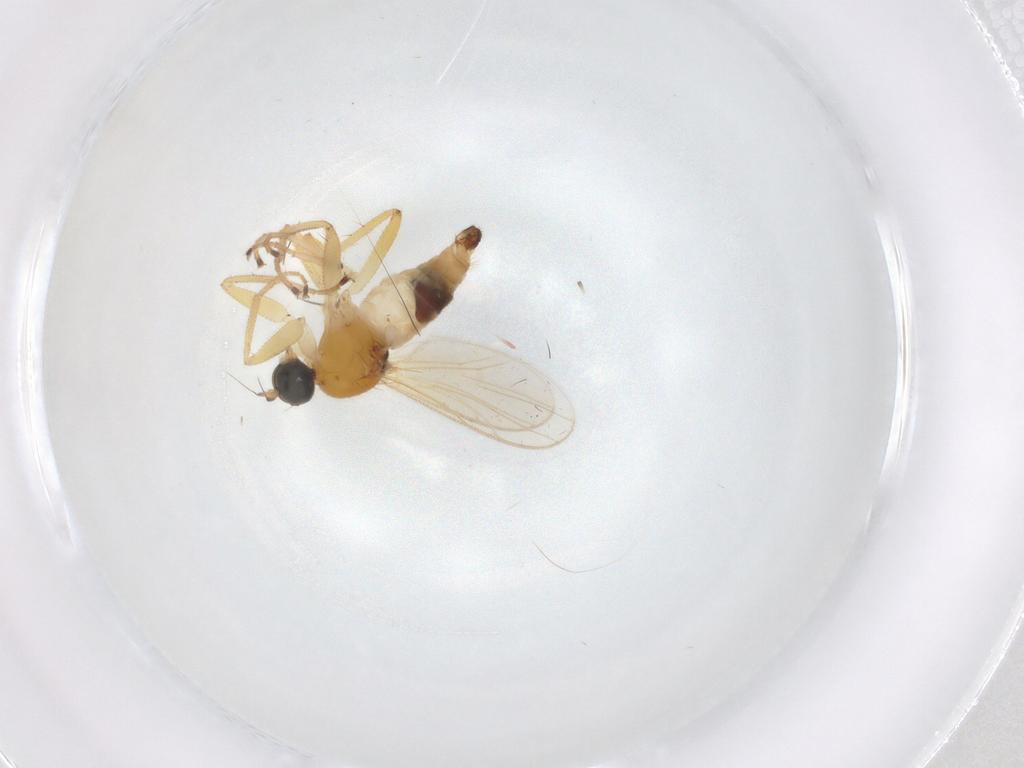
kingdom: Animalia
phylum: Arthropoda
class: Insecta
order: Diptera
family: Hybotidae
